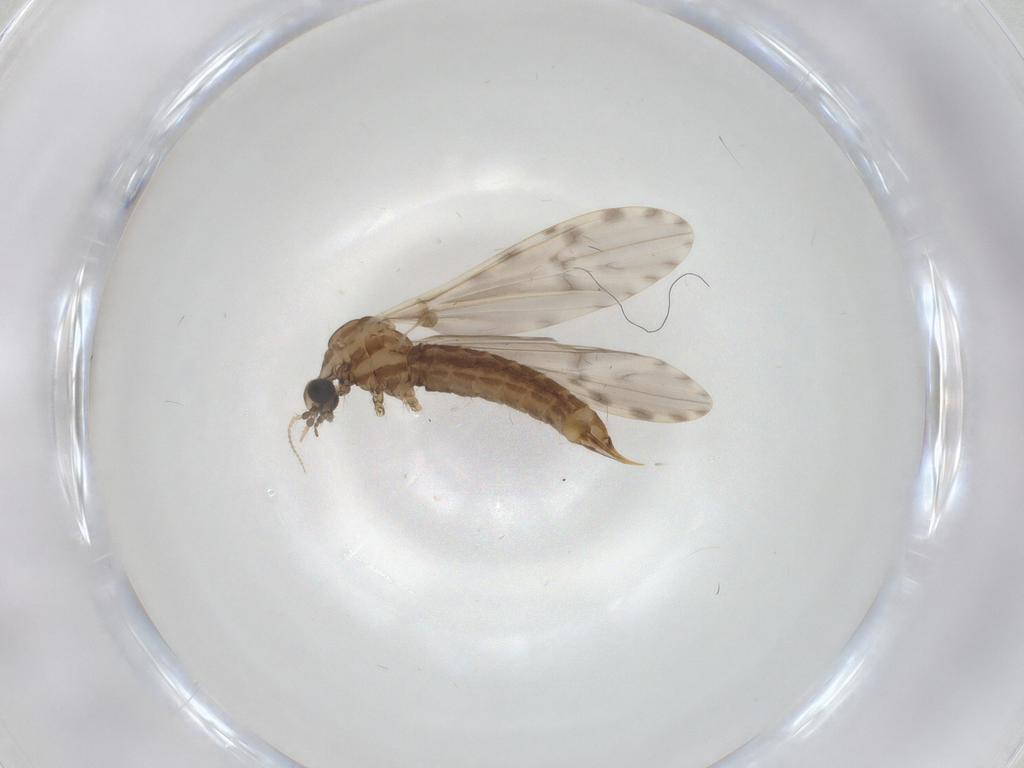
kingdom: Animalia
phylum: Arthropoda
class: Insecta
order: Diptera
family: Limoniidae
